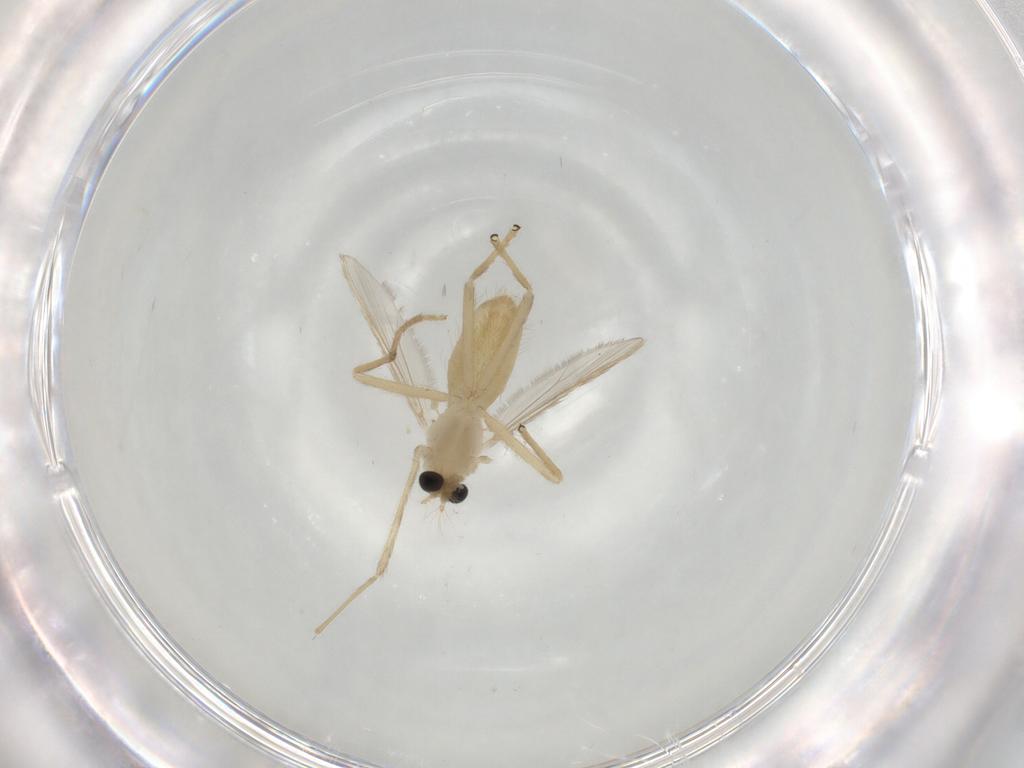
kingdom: Animalia
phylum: Arthropoda
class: Insecta
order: Diptera
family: Chironomidae
